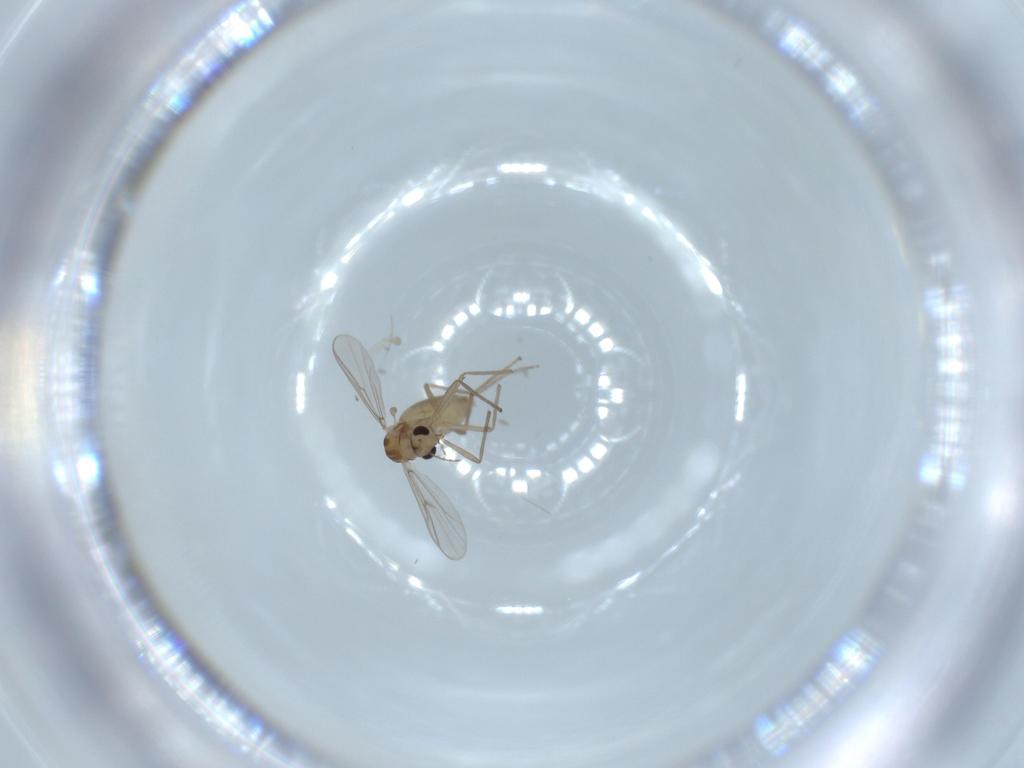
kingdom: Animalia
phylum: Arthropoda
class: Insecta
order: Diptera
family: Chironomidae
